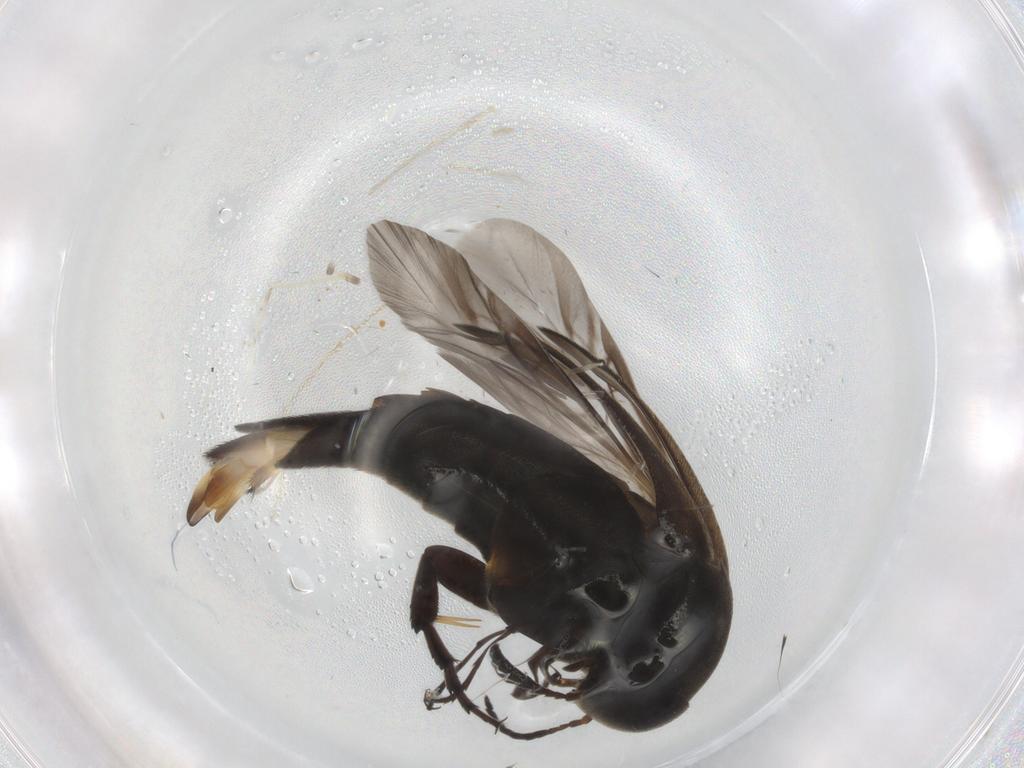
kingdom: Animalia
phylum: Arthropoda
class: Insecta
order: Coleoptera
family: Mordellidae
